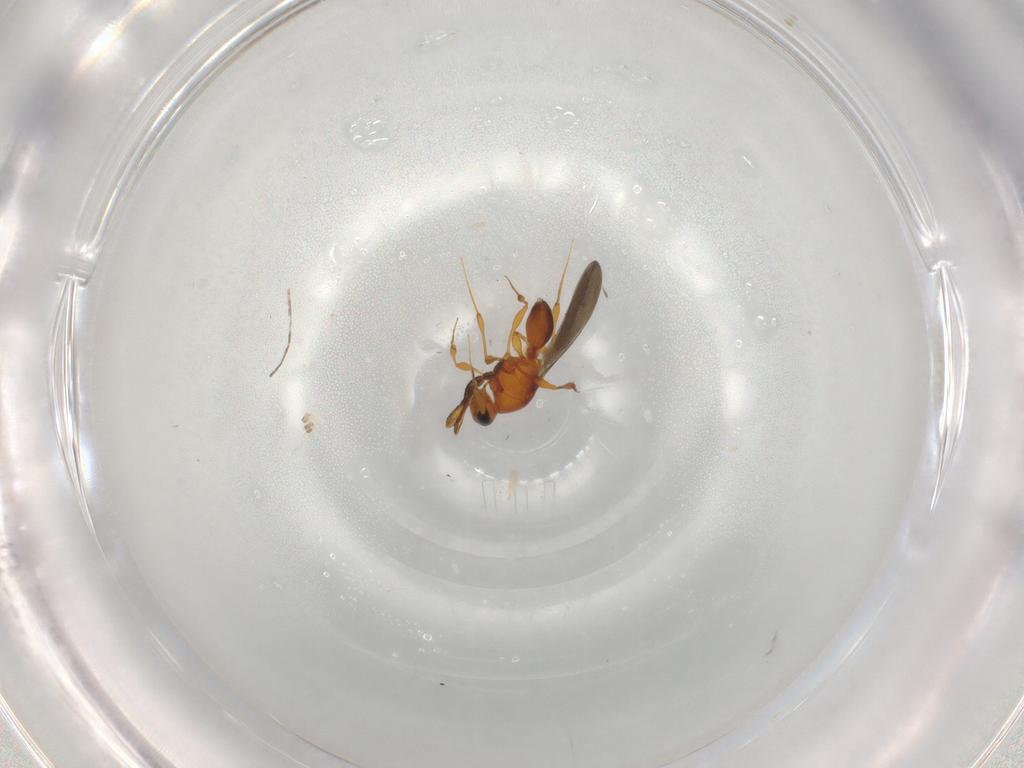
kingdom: Animalia
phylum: Arthropoda
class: Insecta
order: Hymenoptera
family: Platygastridae
